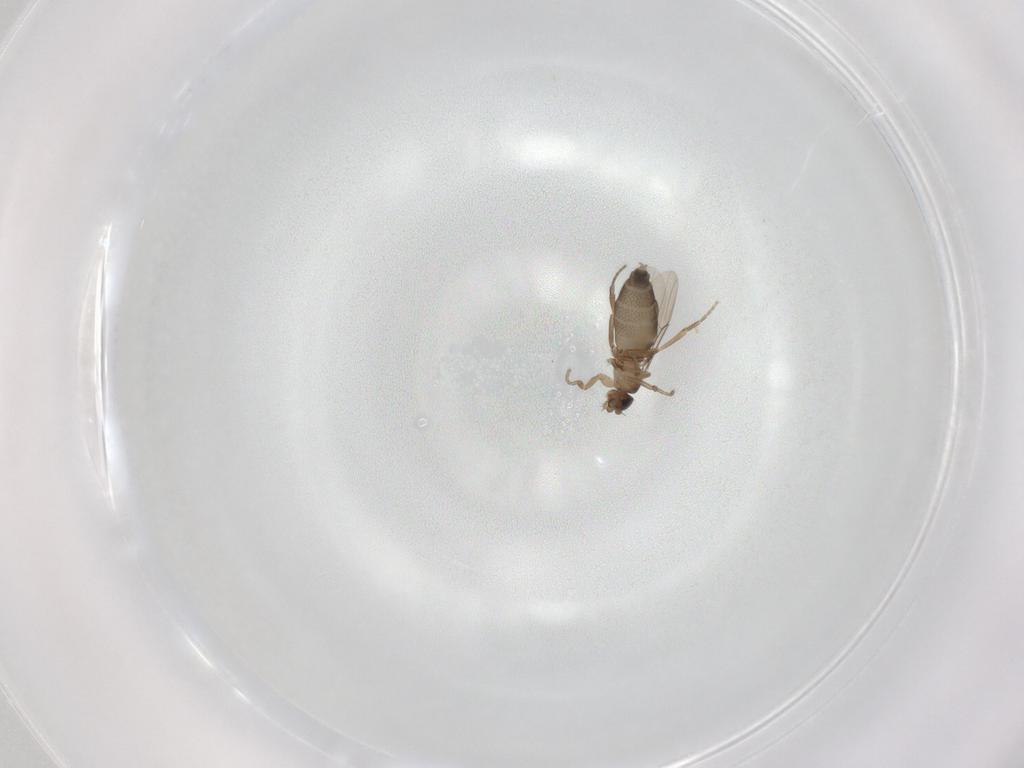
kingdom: Animalia
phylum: Arthropoda
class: Insecta
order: Diptera
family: Phoridae
